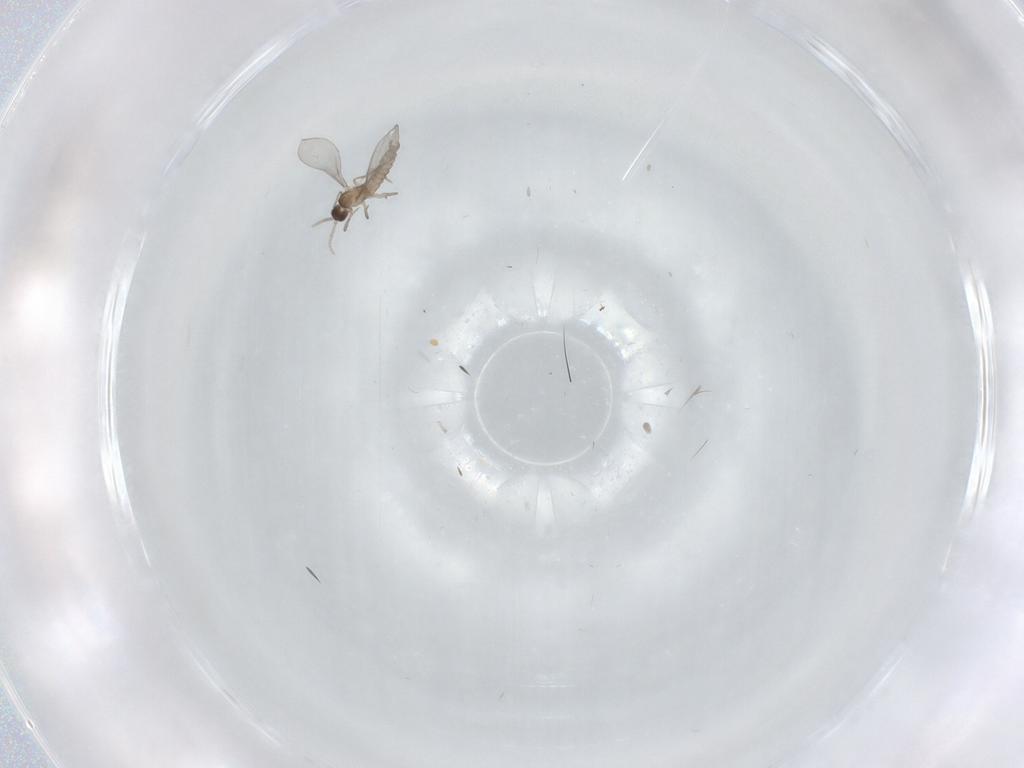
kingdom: Animalia
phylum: Arthropoda
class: Insecta
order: Diptera
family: Cecidomyiidae
